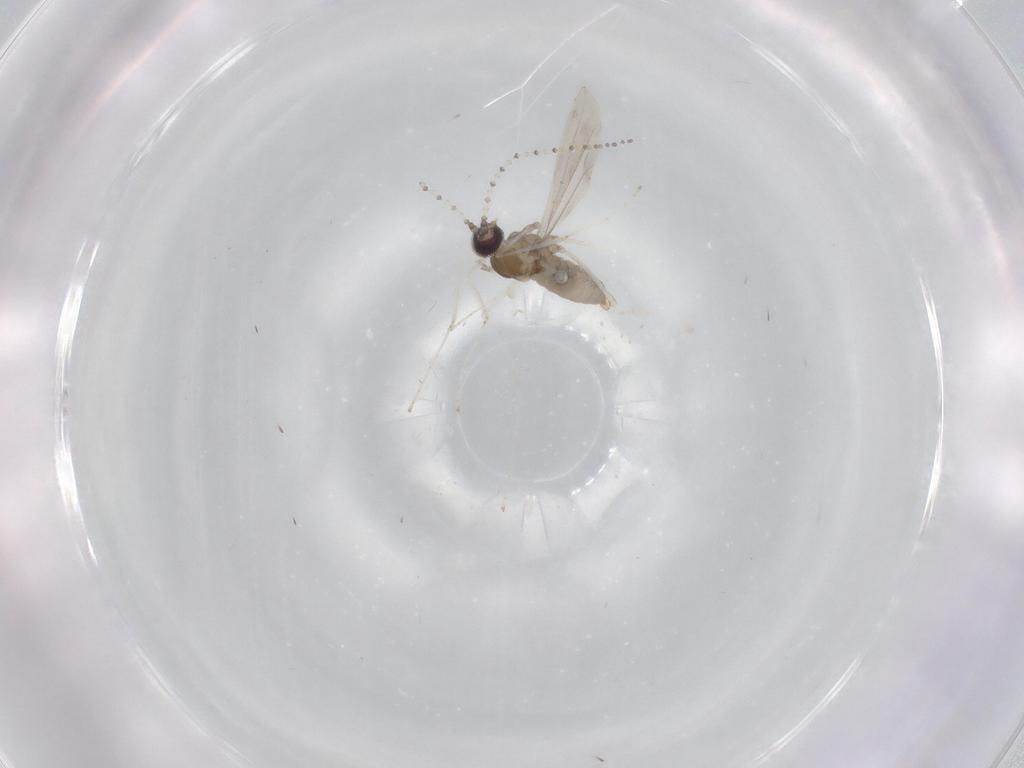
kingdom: Animalia
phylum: Arthropoda
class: Insecta
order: Diptera
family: Cecidomyiidae
